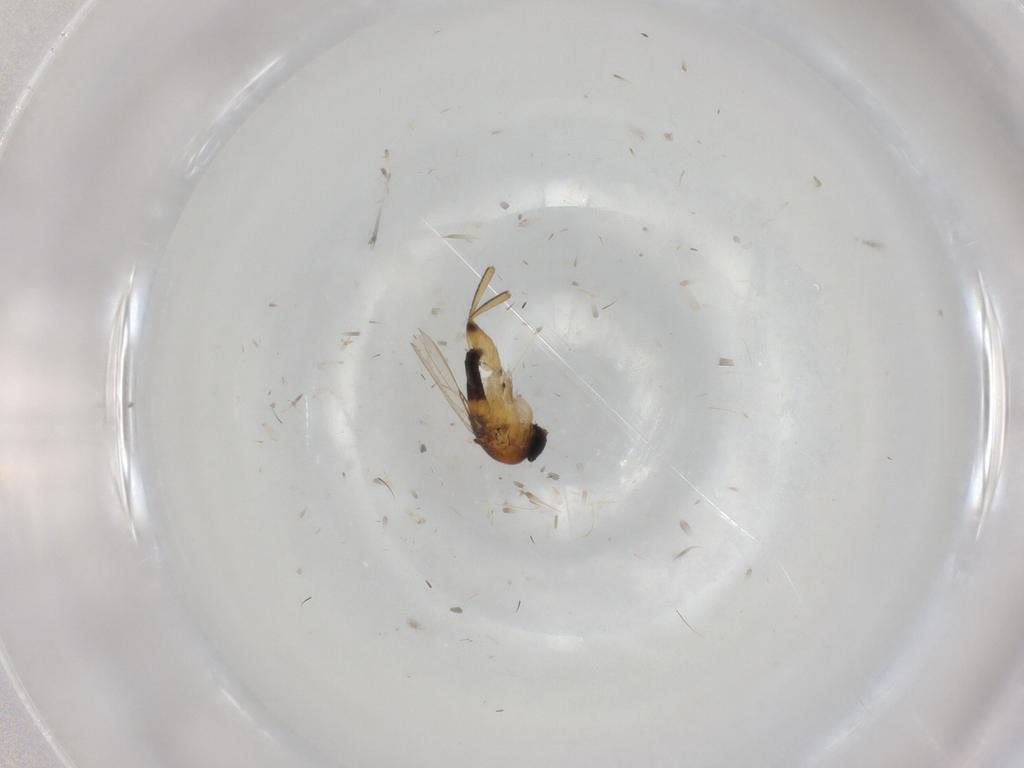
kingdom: Animalia
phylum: Arthropoda
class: Insecta
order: Diptera
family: Glossinidae
